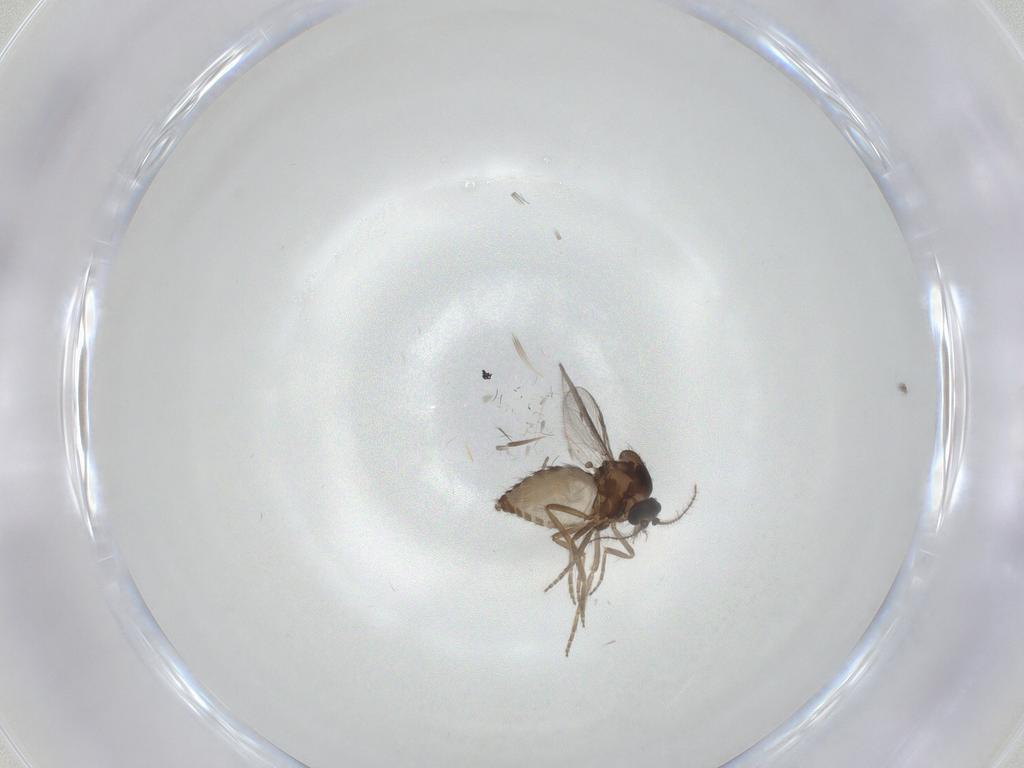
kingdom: Animalia
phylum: Arthropoda
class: Insecta
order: Diptera
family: Ceratopogonidae
